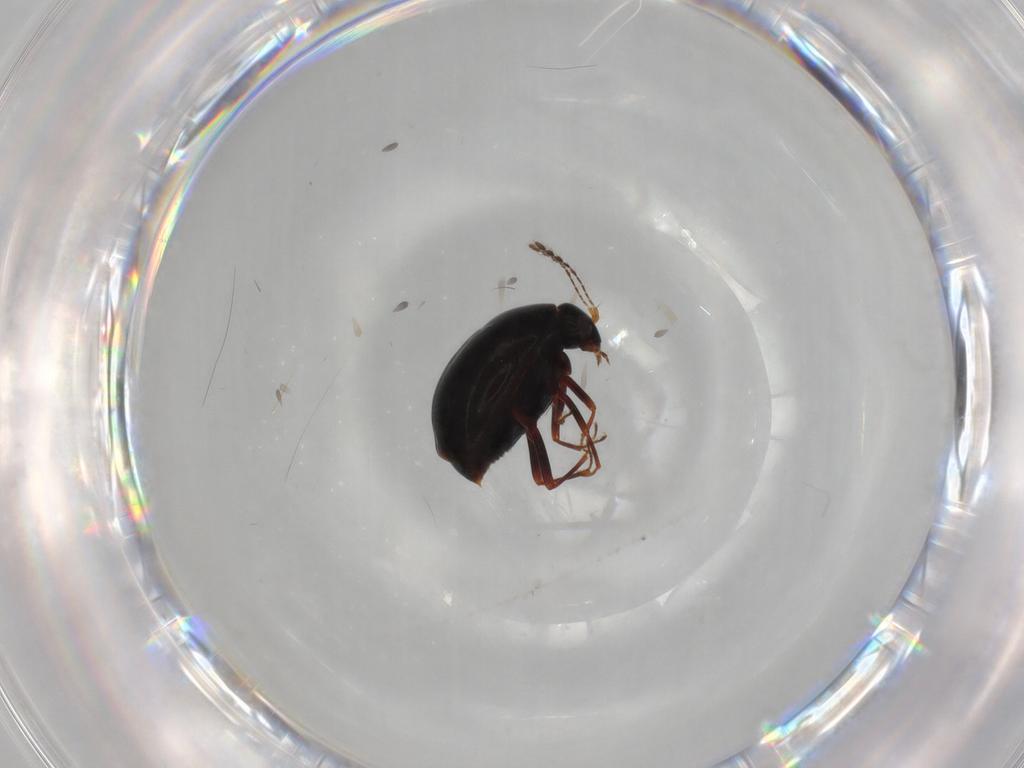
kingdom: Animalia
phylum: Arthropoda
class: Insecta
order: Coleoptera
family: Staphylinidae
